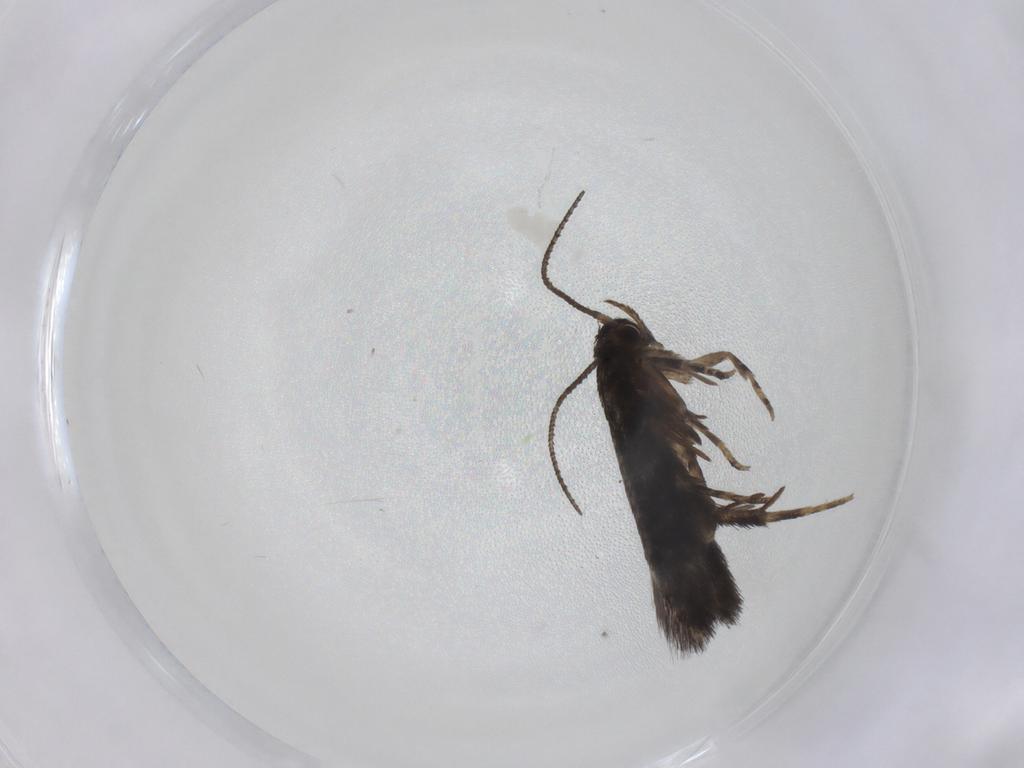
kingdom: Animalia
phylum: Arthropoda
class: Insecta
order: Lepidoptera
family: Elachistidae
